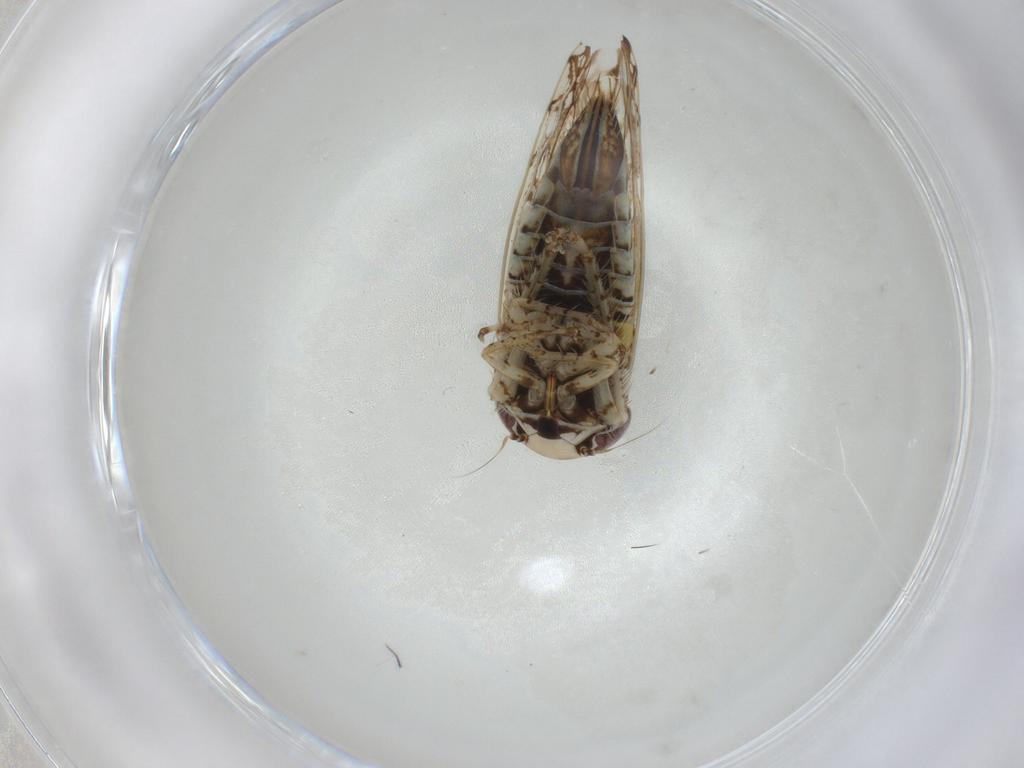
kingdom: Animalia
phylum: Arthropoda
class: Insecta
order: Hemiptera
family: Cicadellidae
